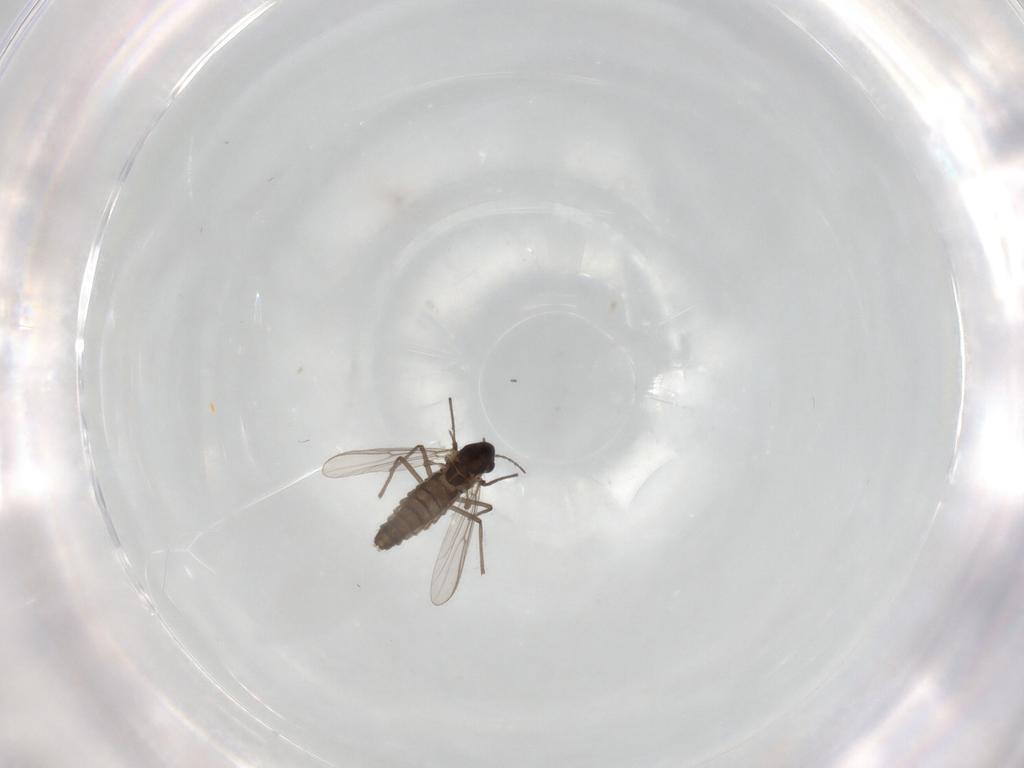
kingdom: Animalia
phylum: Arthropoda
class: Insecta
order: Diptera
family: Chironomidae
